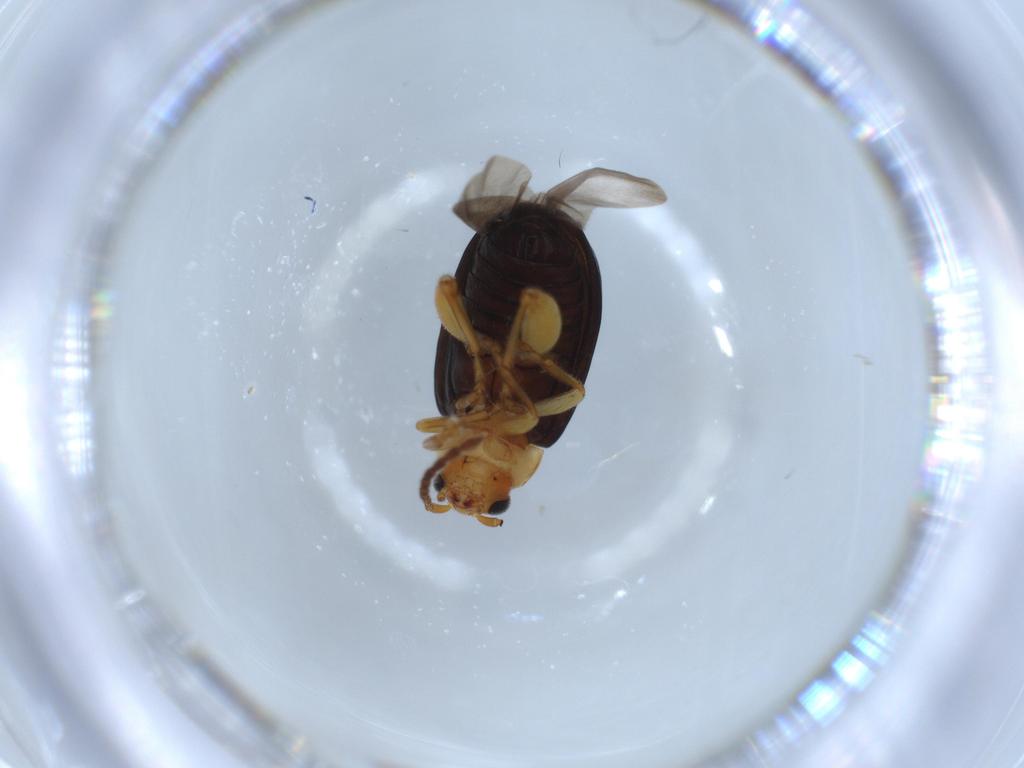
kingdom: Animalia
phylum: Arthropoda
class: Insecta
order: Coleoptera
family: Chrysomelidae
